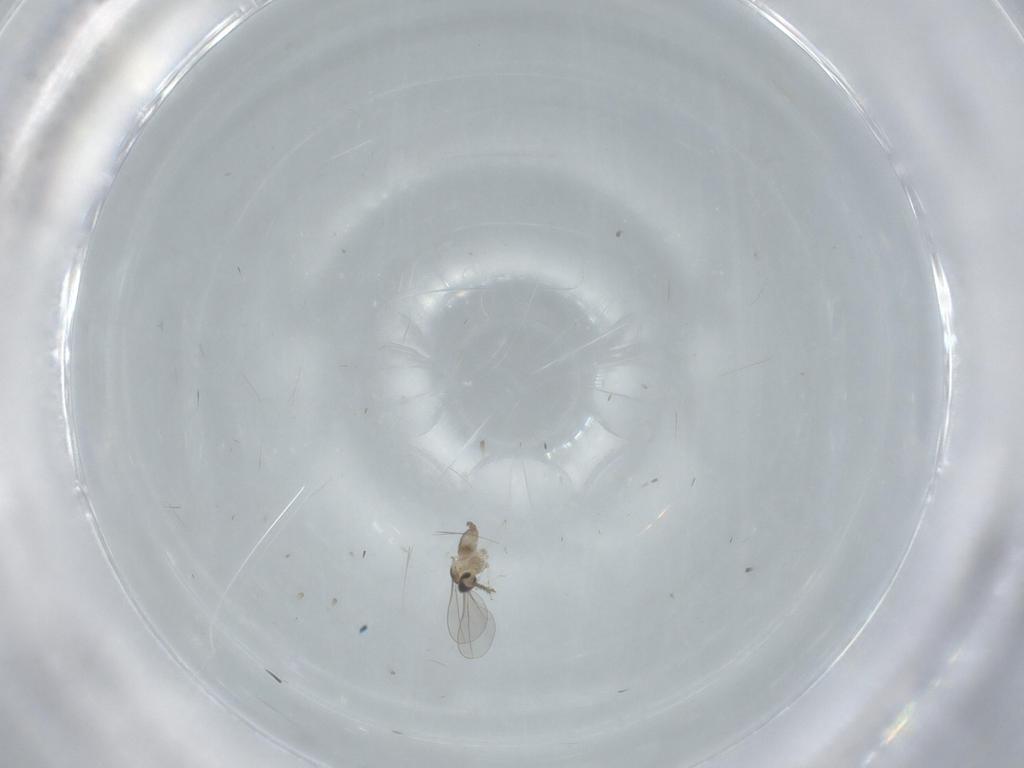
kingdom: Animalia
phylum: Arthropoda
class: Insecta
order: Diptera
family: Cecidomyiidae
